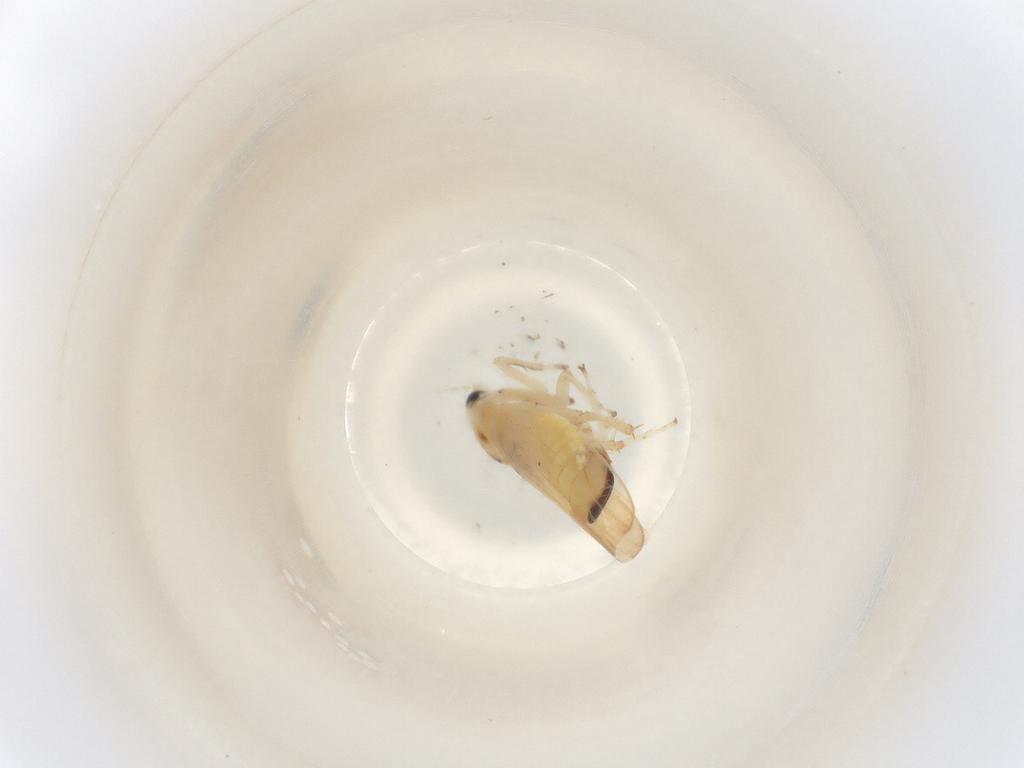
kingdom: Animalia
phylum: Arthropoda
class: Insecta
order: Hemiptera
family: Cicadellidae
